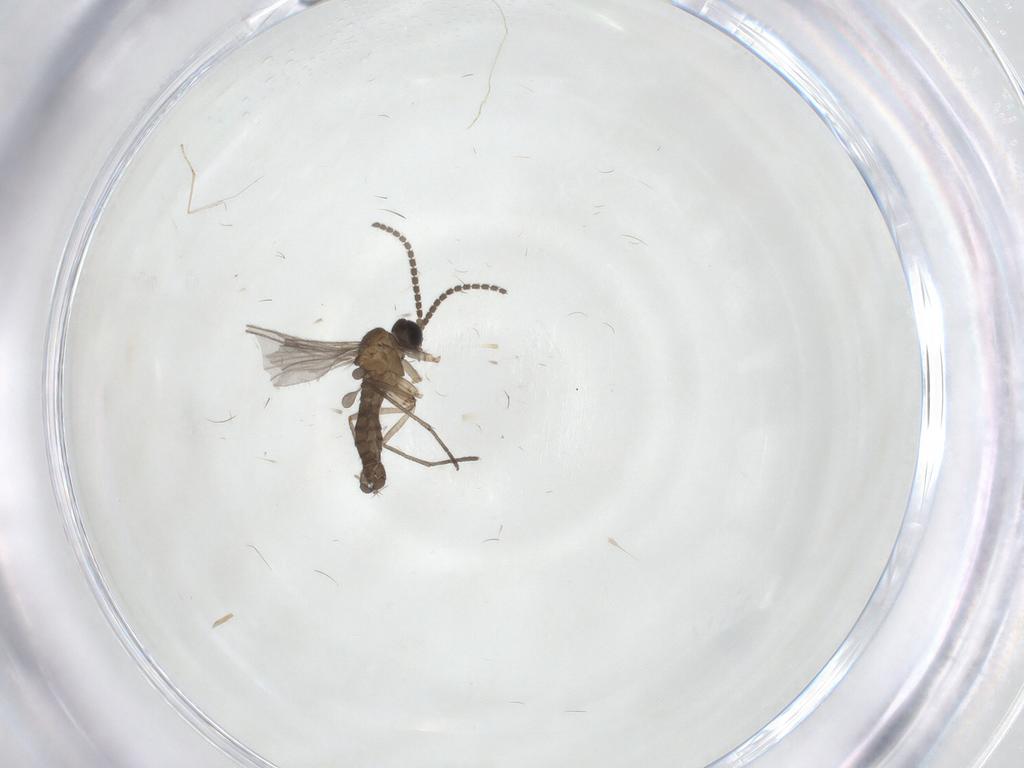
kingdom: Animalia
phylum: Arthropoda
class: Insecta
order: Diptera
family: Sciaridae
